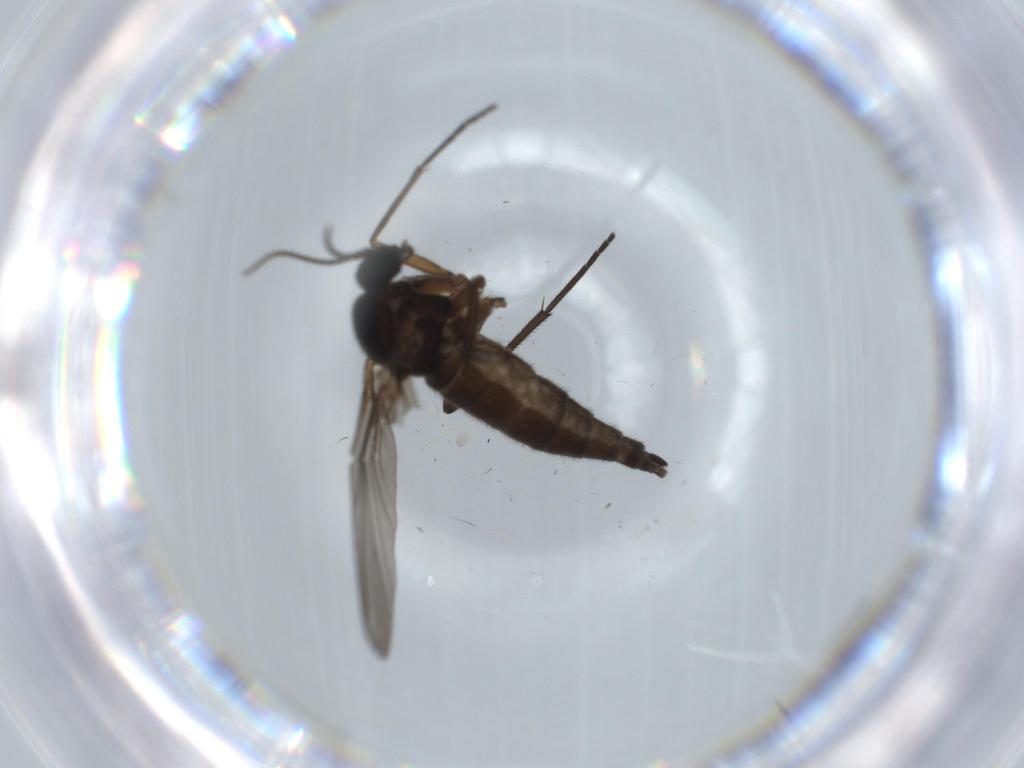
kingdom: Animalia
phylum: Arthropoda
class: Insecta
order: Diptera
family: Sciaridae
